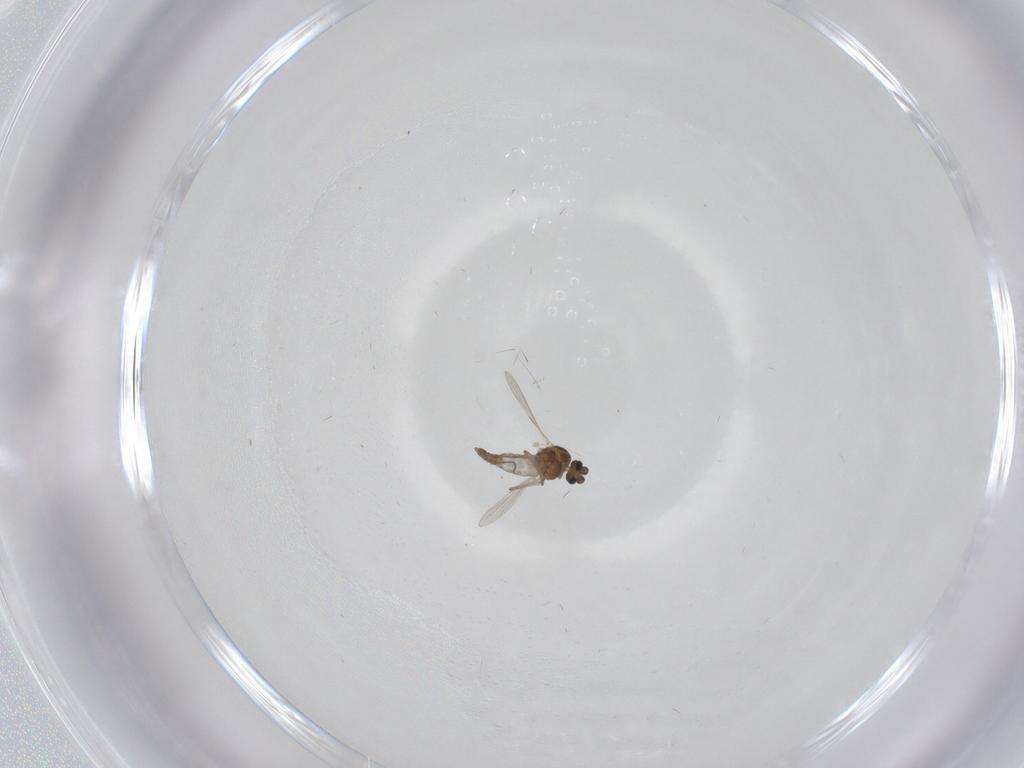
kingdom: Animalia
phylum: Arthropoda
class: Insecta
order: Diptera
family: Ceratopogonidae
